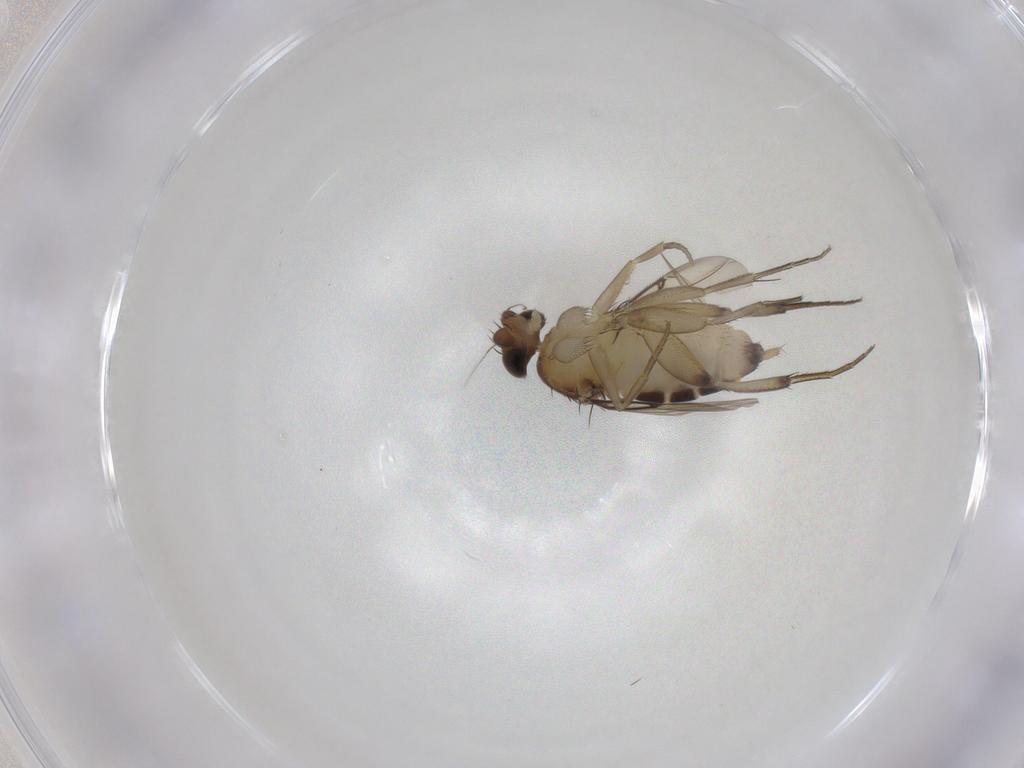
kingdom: Animalia
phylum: Arthropoda
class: Insecta
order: Diptera
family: Phoridae
